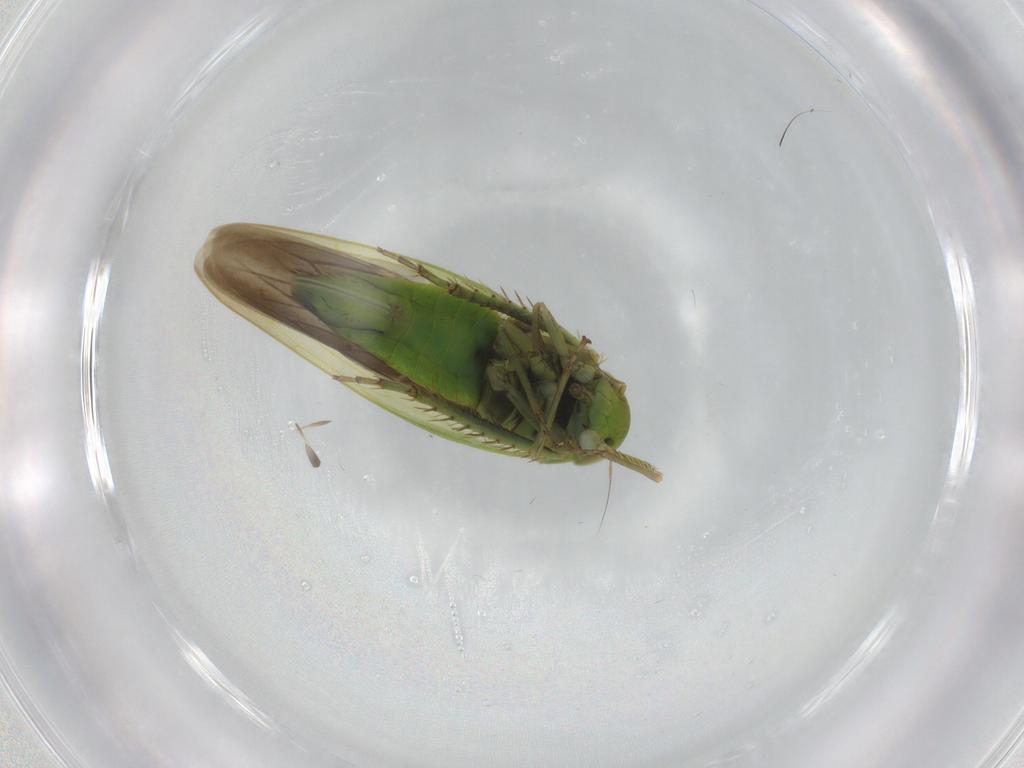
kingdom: Animalia
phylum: Arthropoda
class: Insecta
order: Hemiptera
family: Cicadellidae
